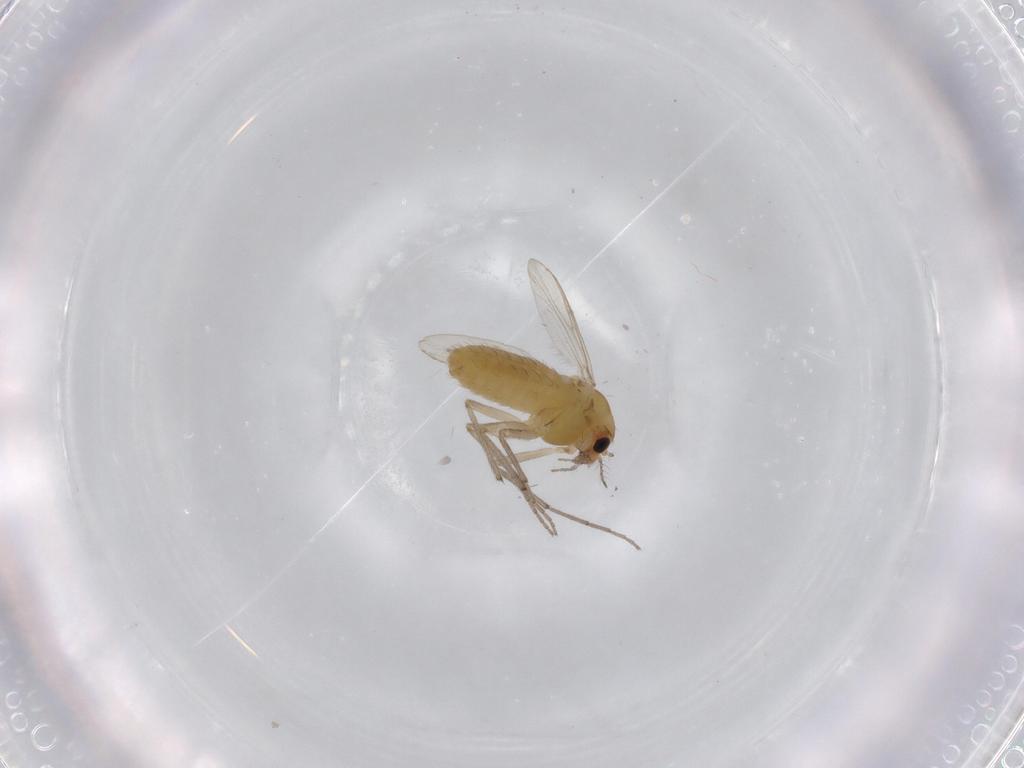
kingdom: Animalia
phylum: Arthropoda
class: Insecta
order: Diptera
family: Chironomidae
